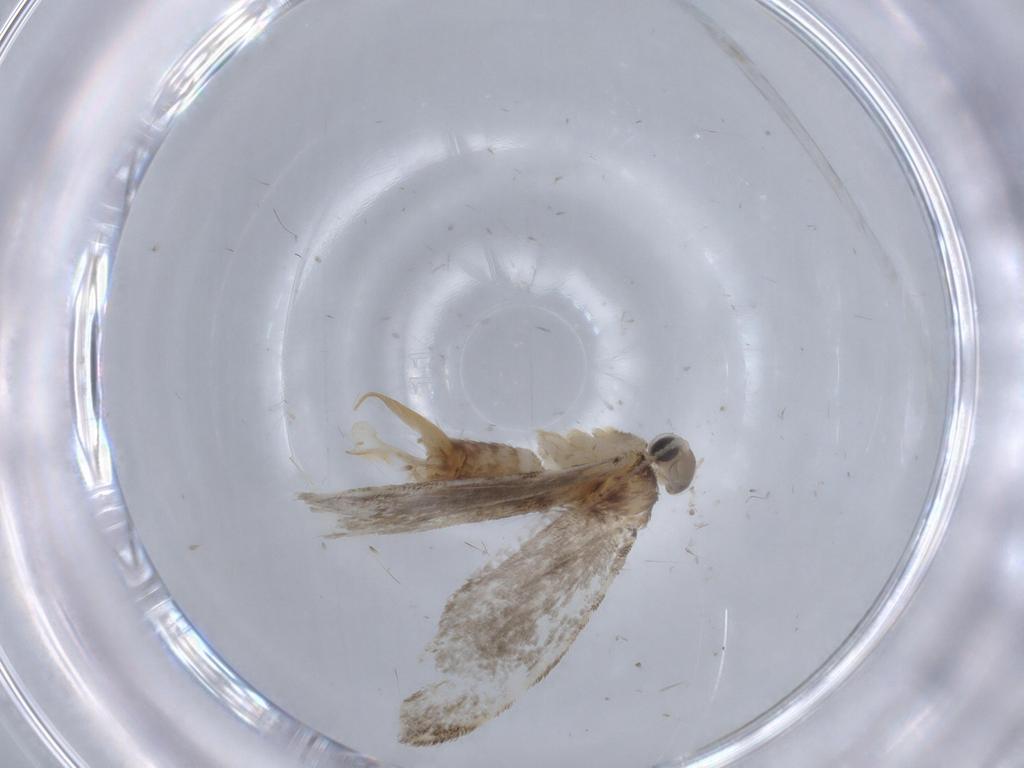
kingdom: Animalia
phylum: Arthropoda
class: Insecta
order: Lepidoptera
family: Tineidae
